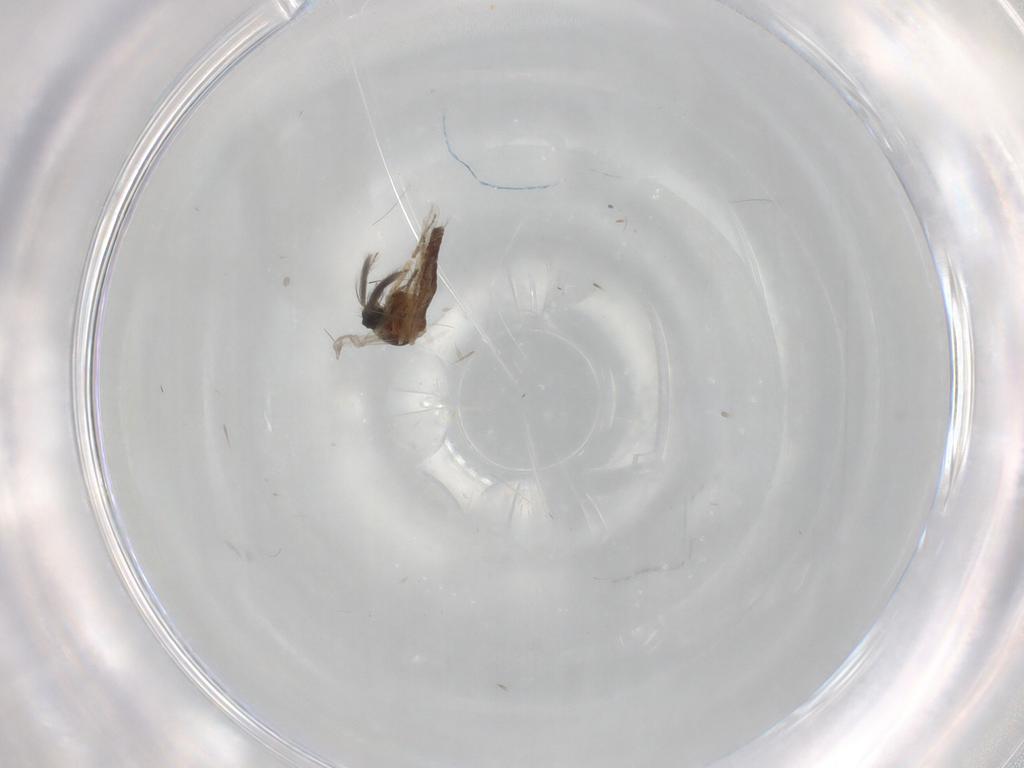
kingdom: Animalia
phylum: Arthropoda
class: Insecta
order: Diptera
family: Ceratopogonidae
